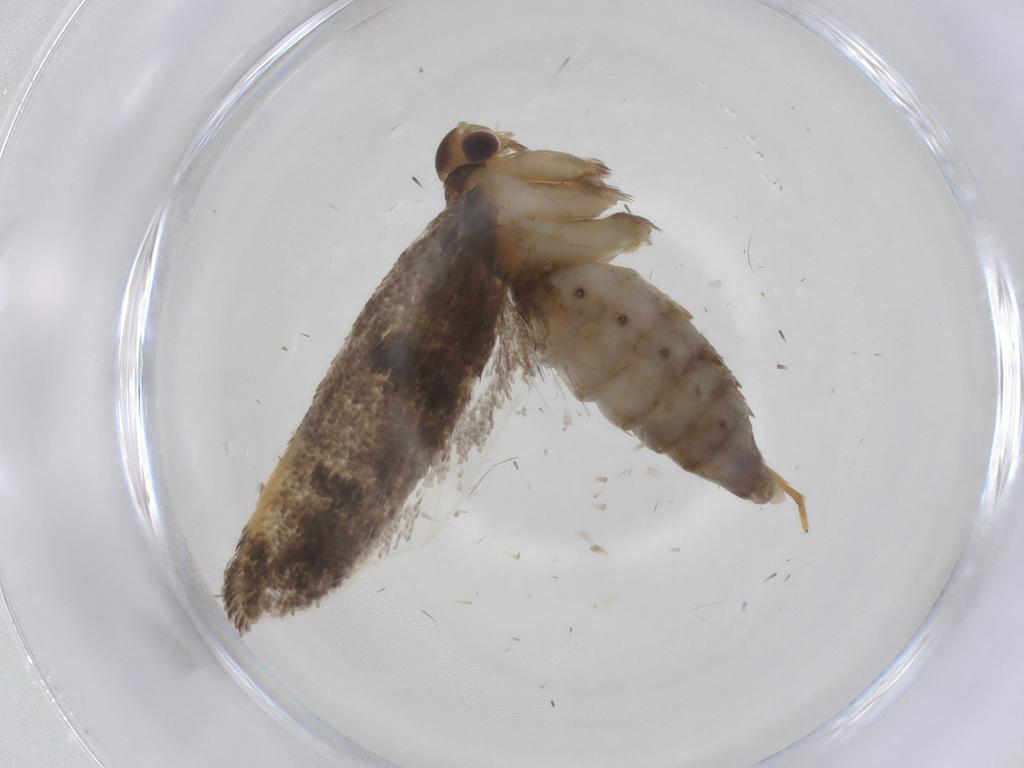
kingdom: Animalia
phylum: Arthropoda
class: Insecta
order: Lepidoptera
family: Lecithoceridae
